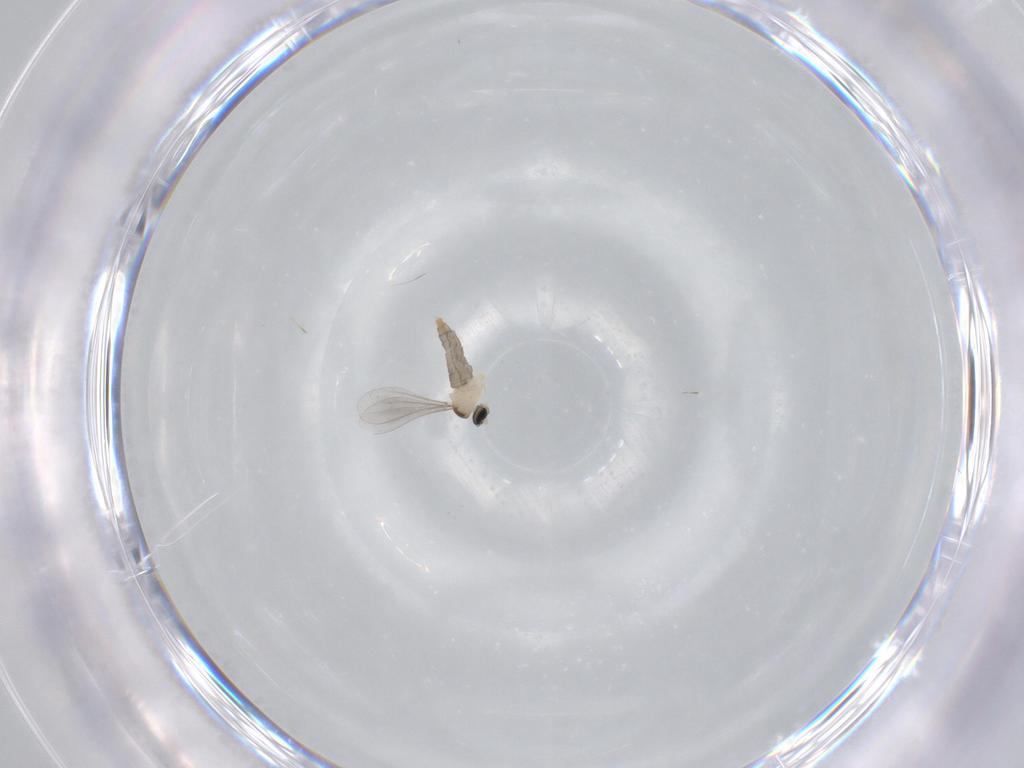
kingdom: Animalia
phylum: Arthropoda
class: Insecta
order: Diptera
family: Cecidomyiidae
